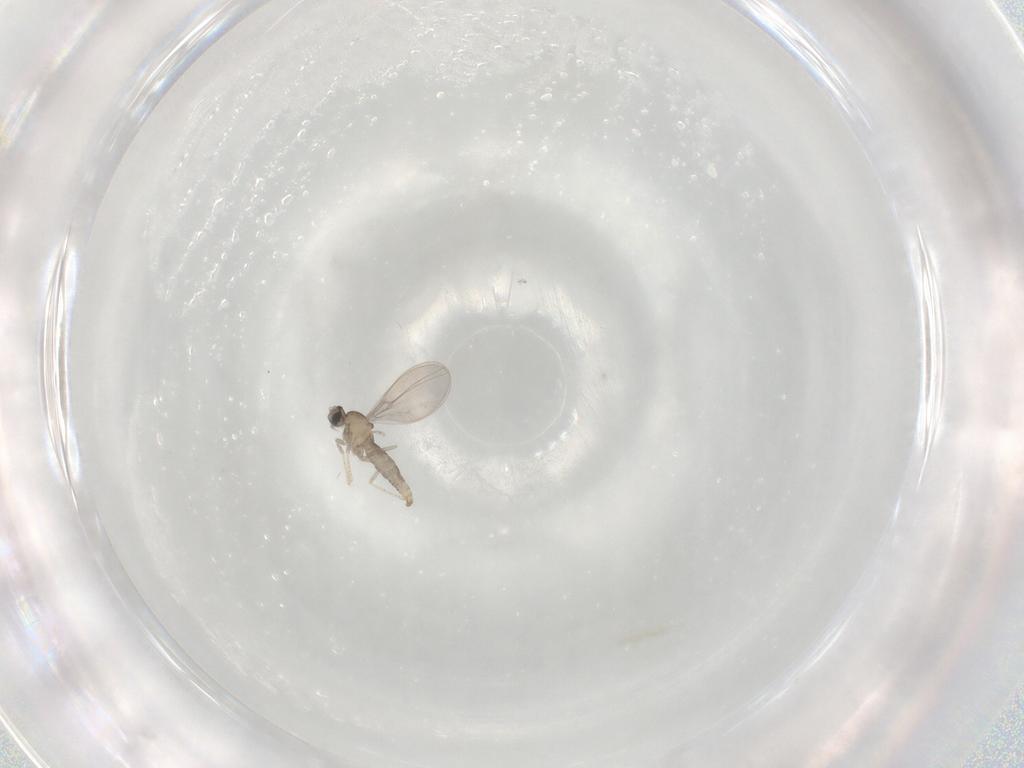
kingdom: Animalia
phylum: Arthropoda
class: Insecta
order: Diptera
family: Cecidomyiidae
